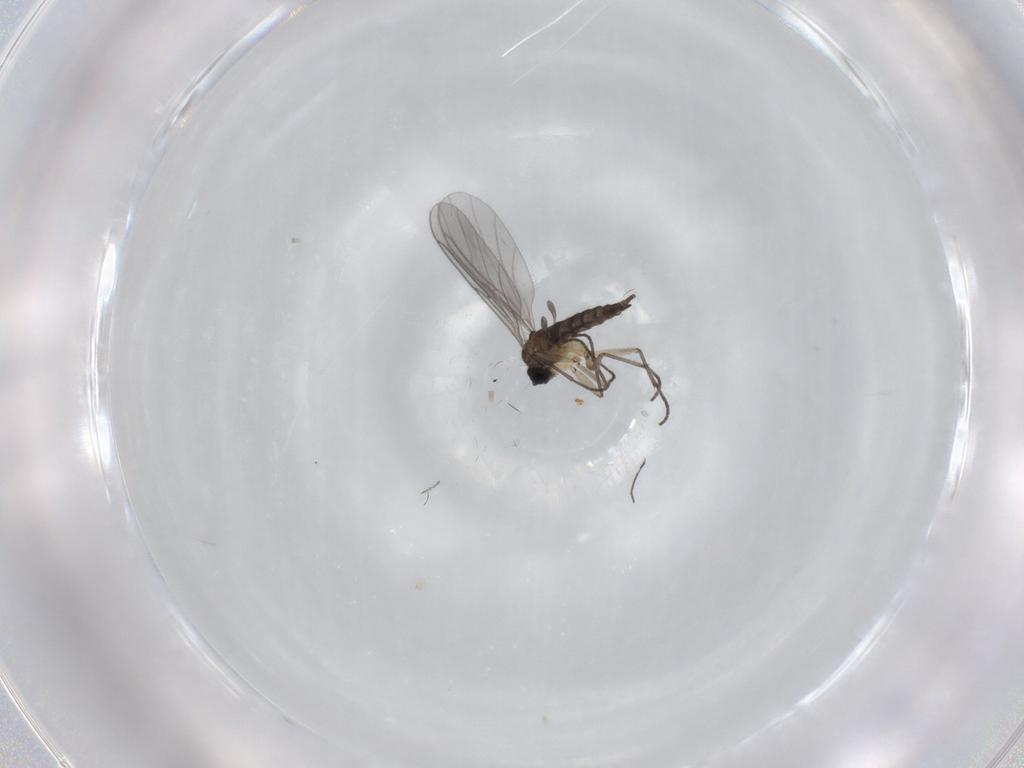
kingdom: Animalia
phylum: Arthropoda
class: Insecta
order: Diptera
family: Sciaridae
